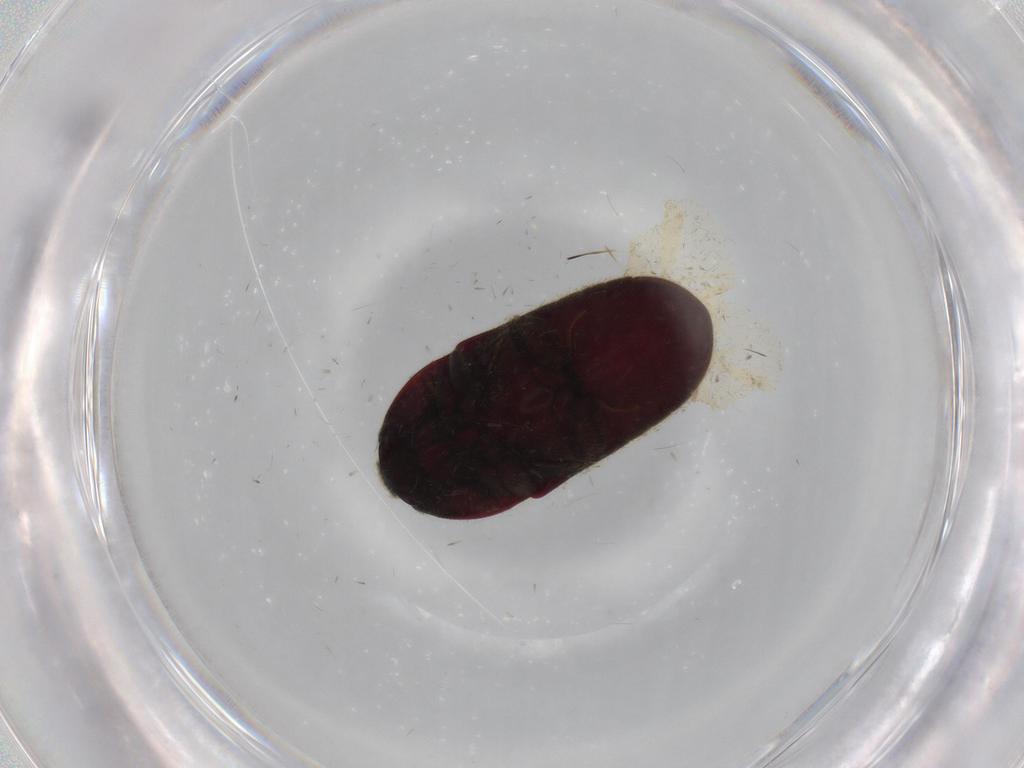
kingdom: Animalia
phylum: Arthropoda
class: Insecta
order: Coleoptera
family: Throscidae
